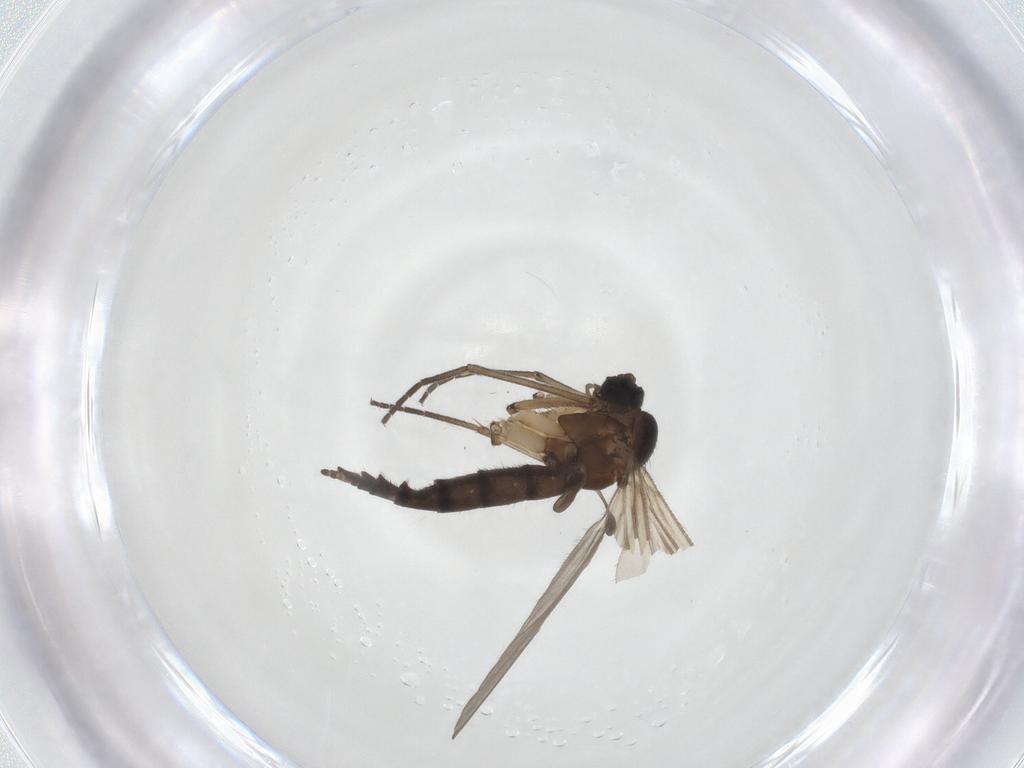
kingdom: Animalia
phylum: Arthropoda
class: Insecta
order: Diptera
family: Sciaridae
